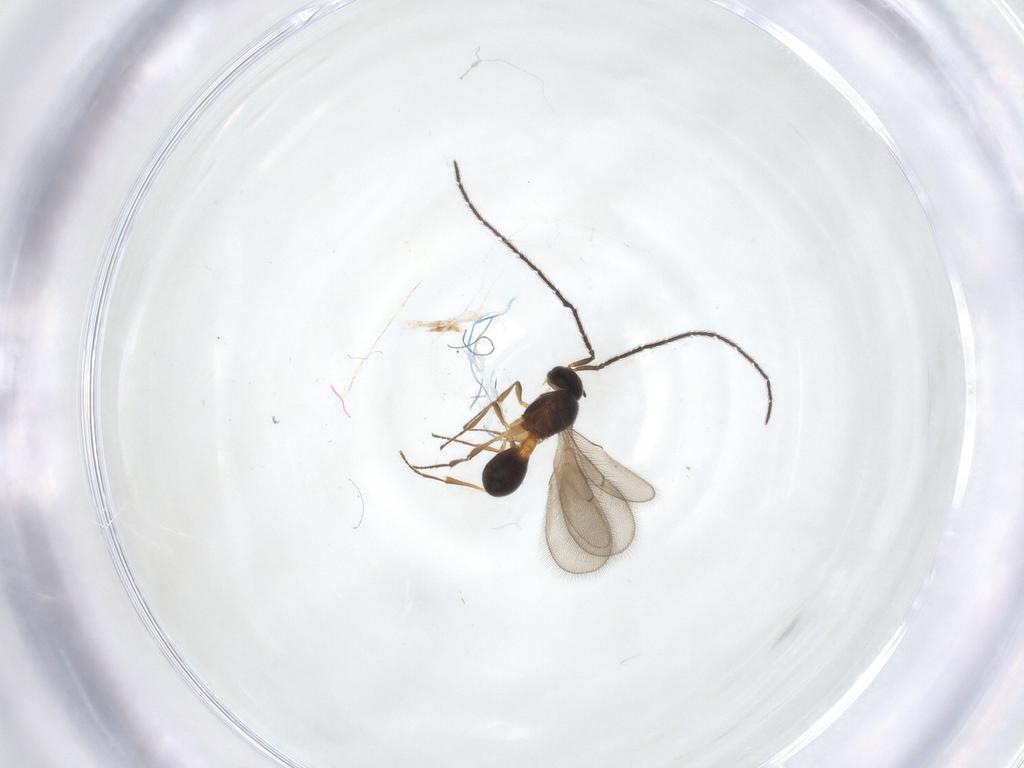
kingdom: Animalia
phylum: Arthropoda
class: Insecta
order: Hymenoptera
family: Scelionidae
